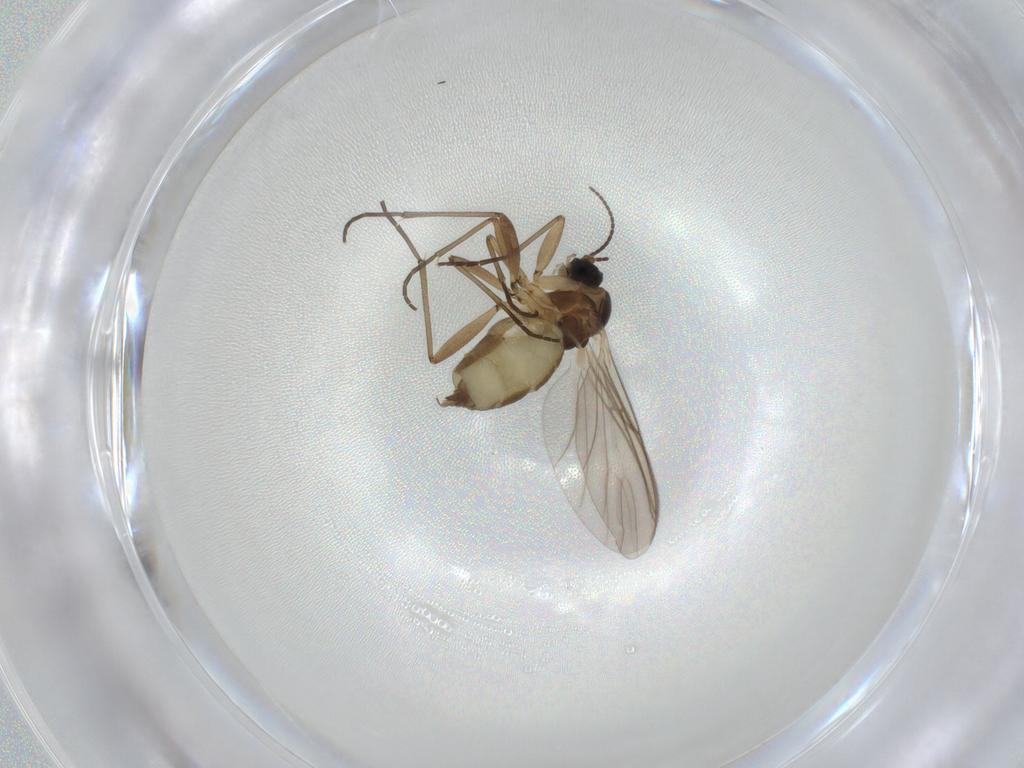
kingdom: Animalia
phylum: Arthropoda
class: Insecta
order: Diptera
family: Sciaridae
